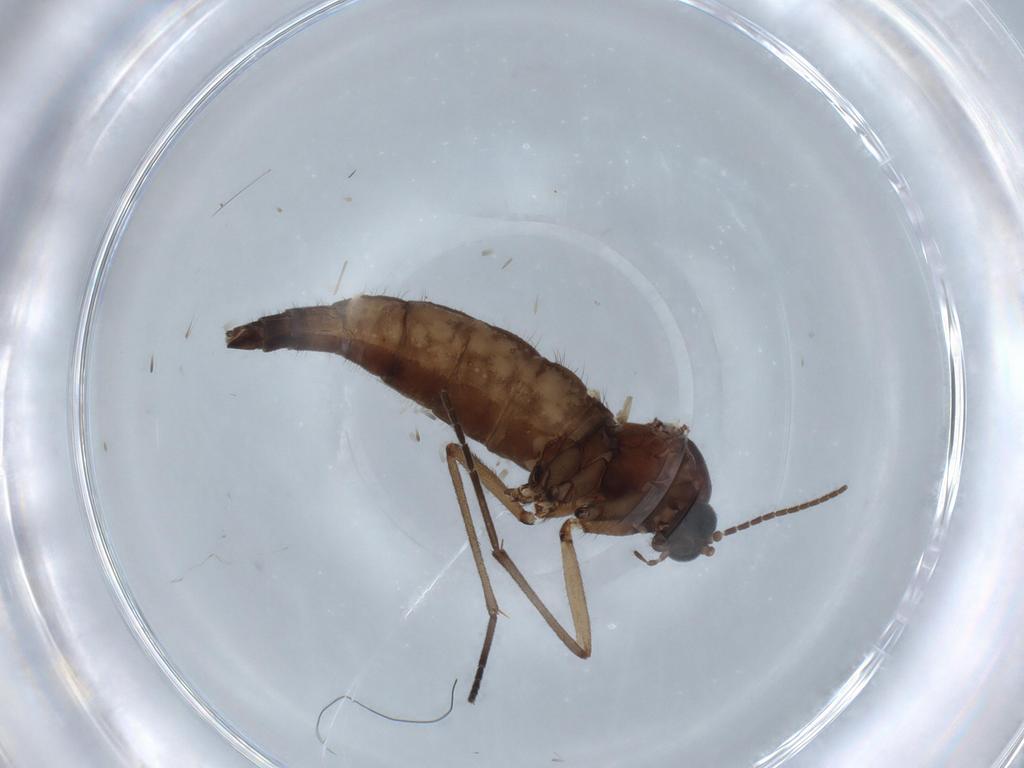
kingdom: Animalia
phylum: Arthropoda
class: Insecta
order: Diptera
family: Sciaridae
